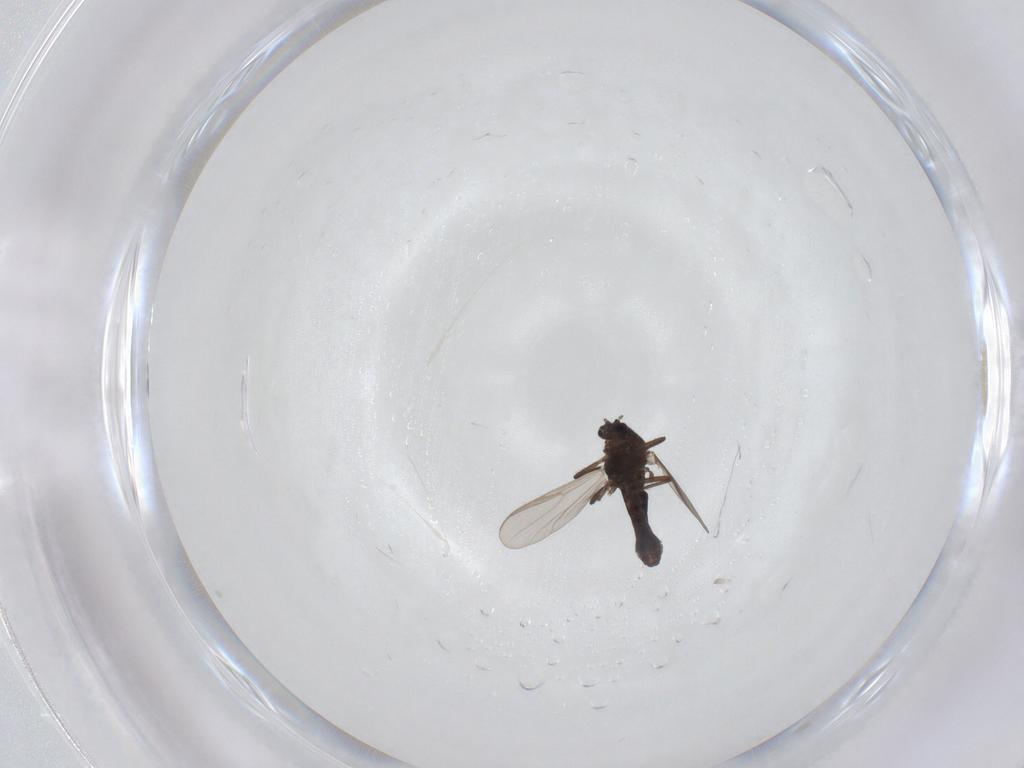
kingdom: Animalia
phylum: Arthropoda
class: Insecta
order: Diptera
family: Chironomidae
